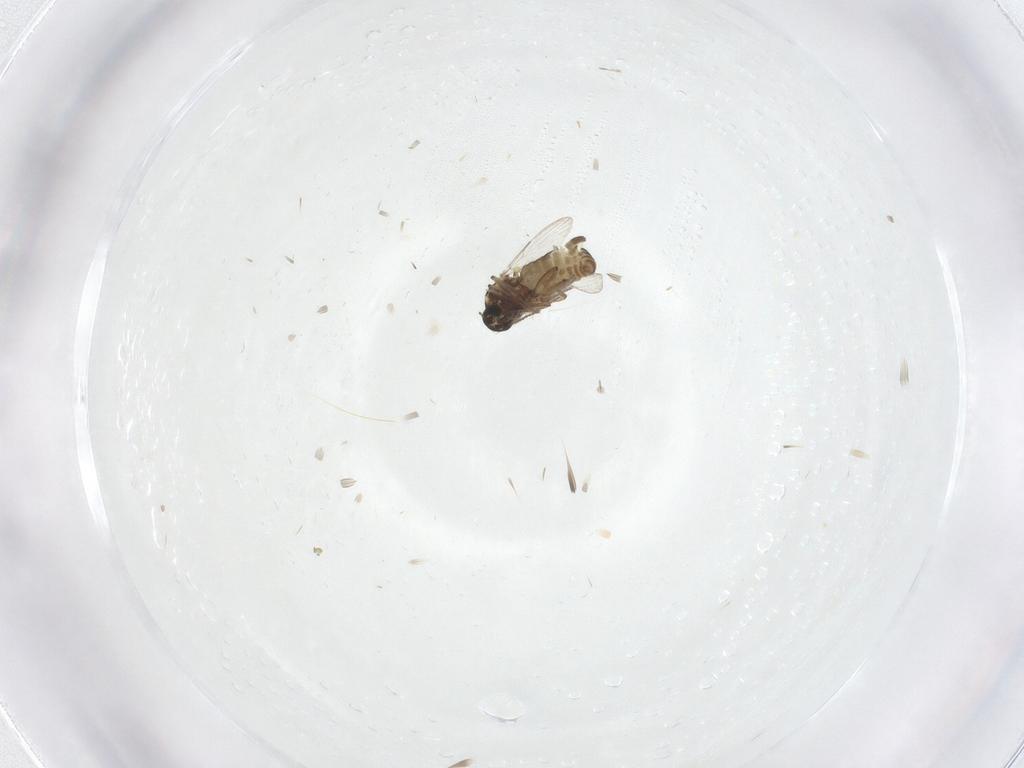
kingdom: Animalia
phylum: Arthropoda
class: Insecta
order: Diptera
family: Ceratopogonidae
